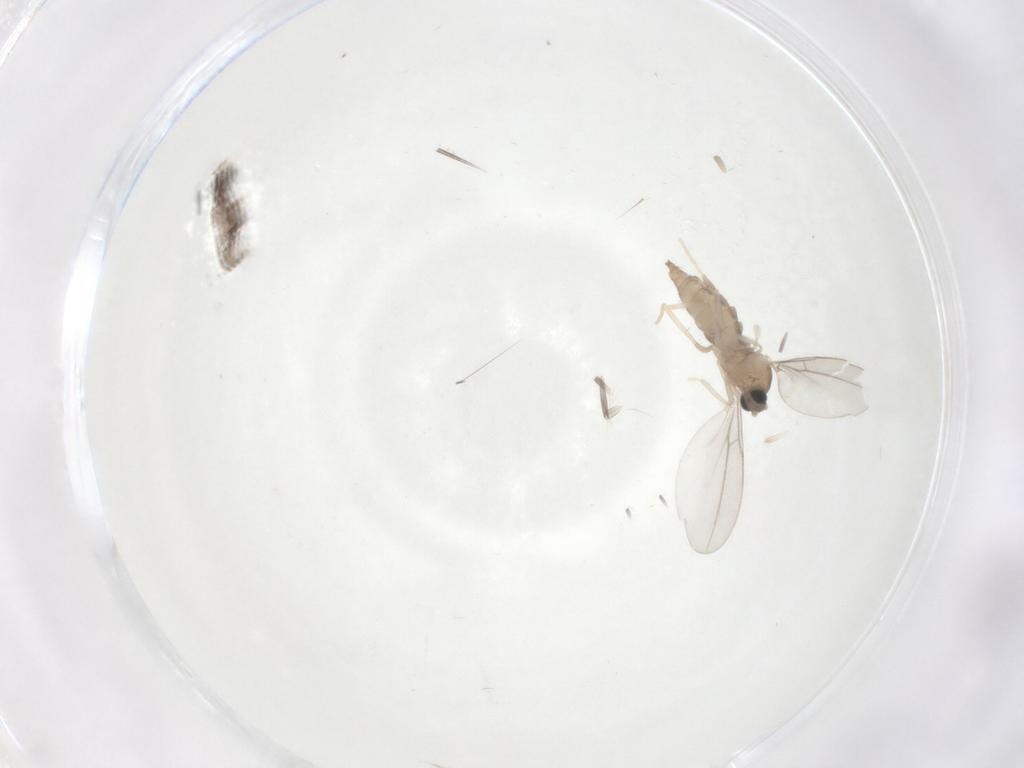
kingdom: Animalia
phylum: Arthropoda
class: Insecta
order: Diptera
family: Cecidomyiidae
